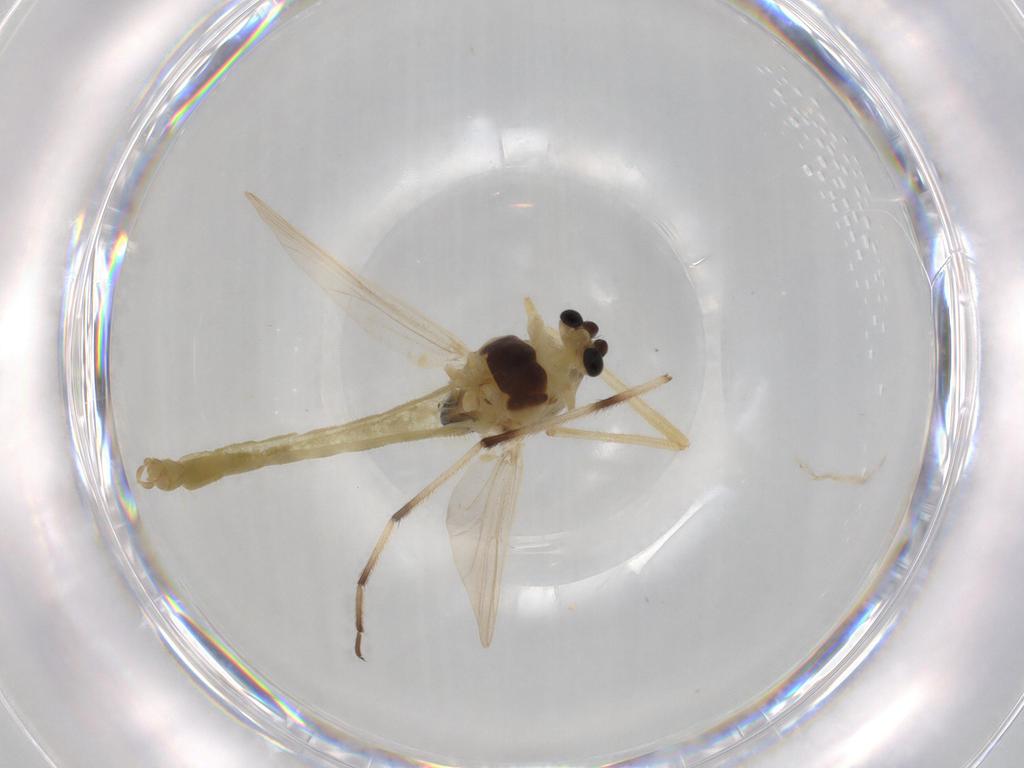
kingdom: Animalia
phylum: Arthropoda
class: Insecta
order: Diptera
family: Chironomidae
